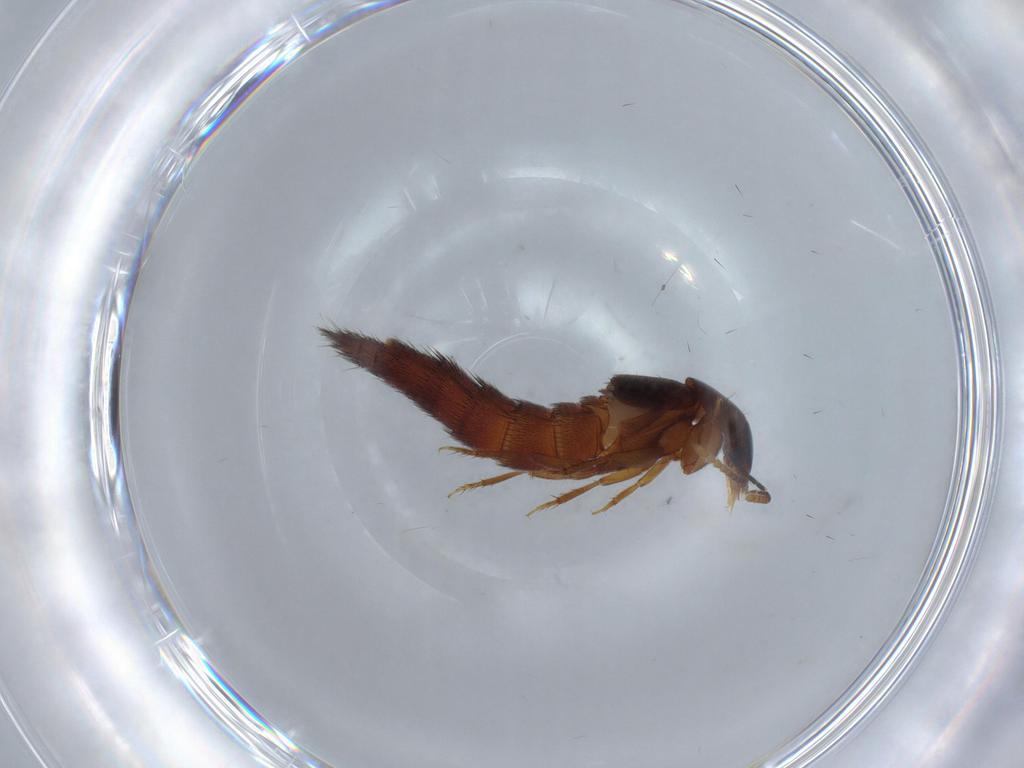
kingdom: Animalia
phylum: Arthropoda
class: Insecta
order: Coleoptera
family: Staphylinidae
